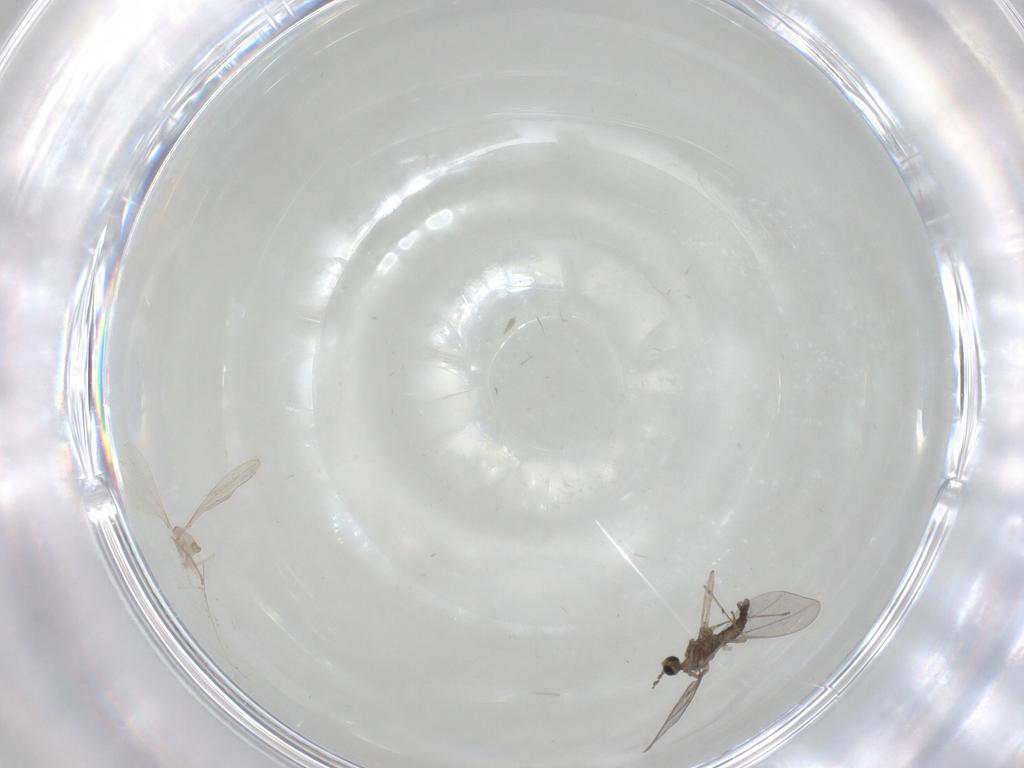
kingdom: Animalia
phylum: Arthropoda
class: Insecta
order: Diptera
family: Cecidomyiidae
